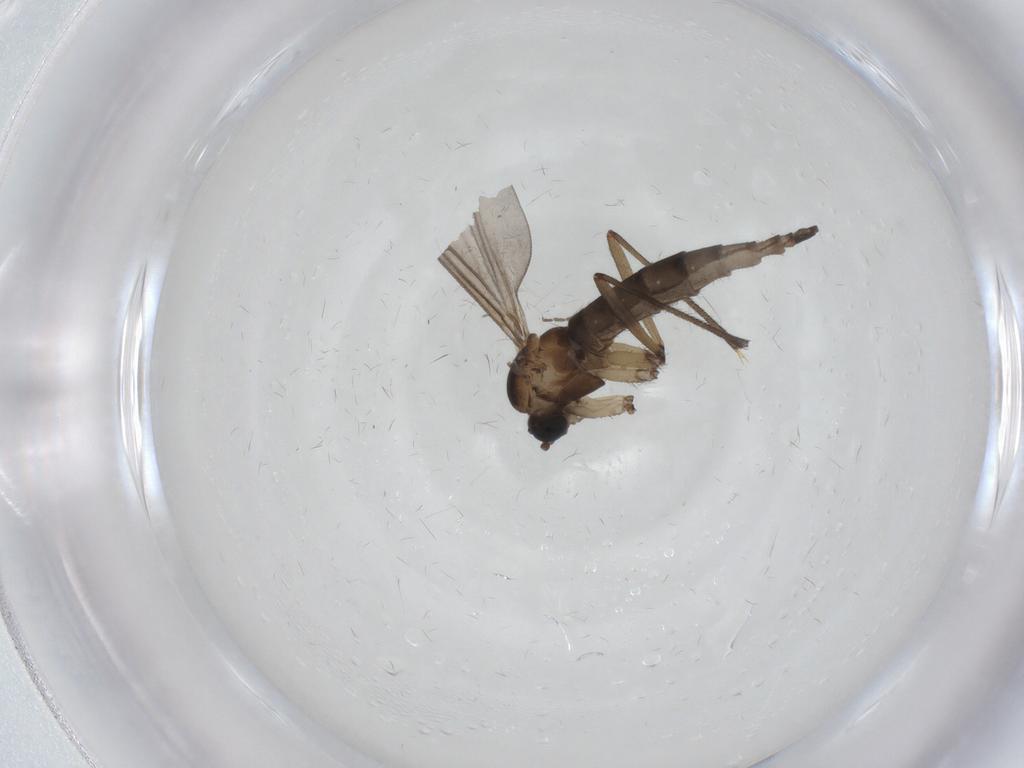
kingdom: Animalia
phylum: Arthropoda
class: Insecta
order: Diptera
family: Sciaridae
